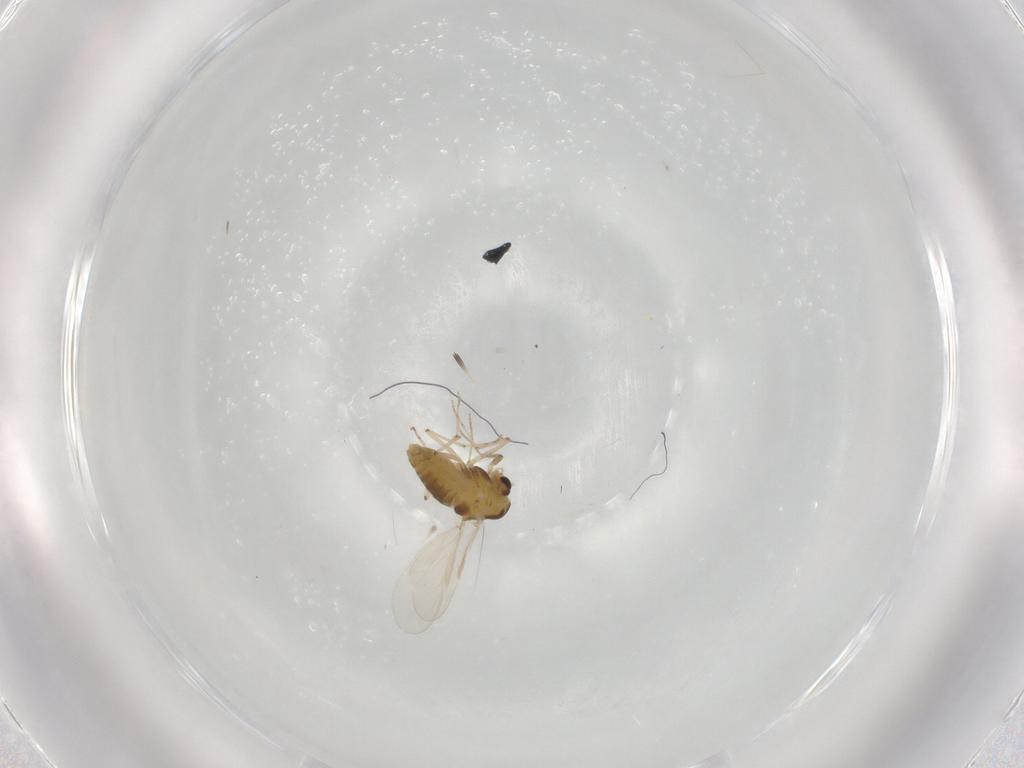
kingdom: Animalia
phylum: Arthropoda
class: Insecta
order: Diptera
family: Chironomidae
